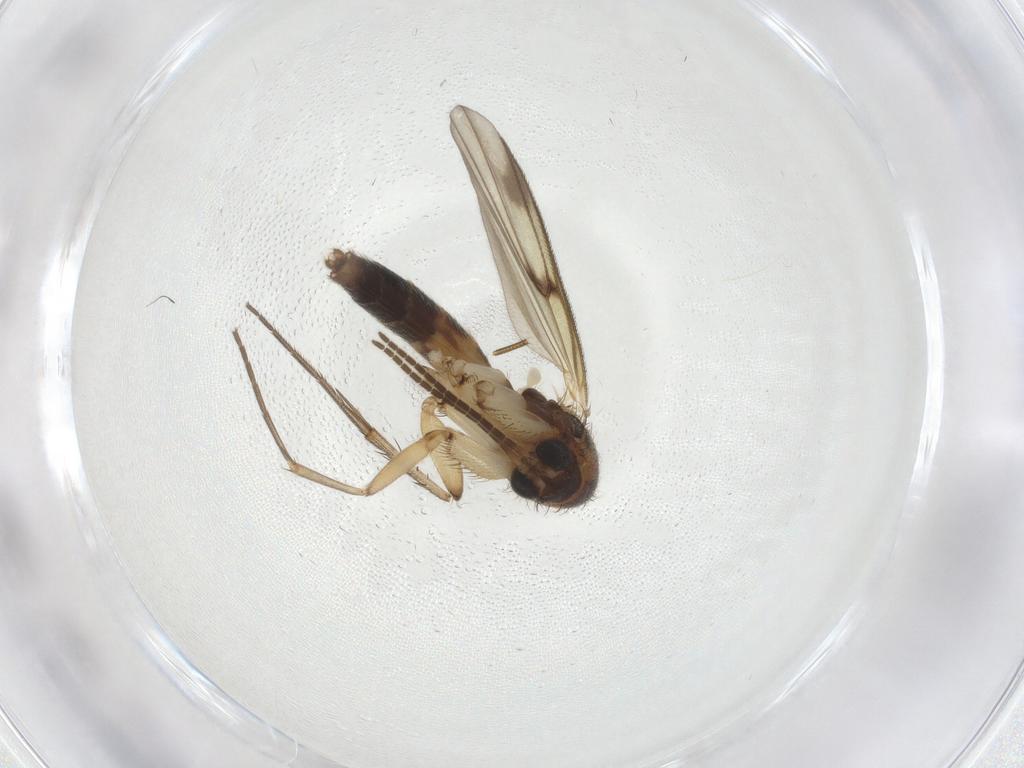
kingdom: Animalia
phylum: Arthropoda
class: Insecta
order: Diptera
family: Mycetophilidae
